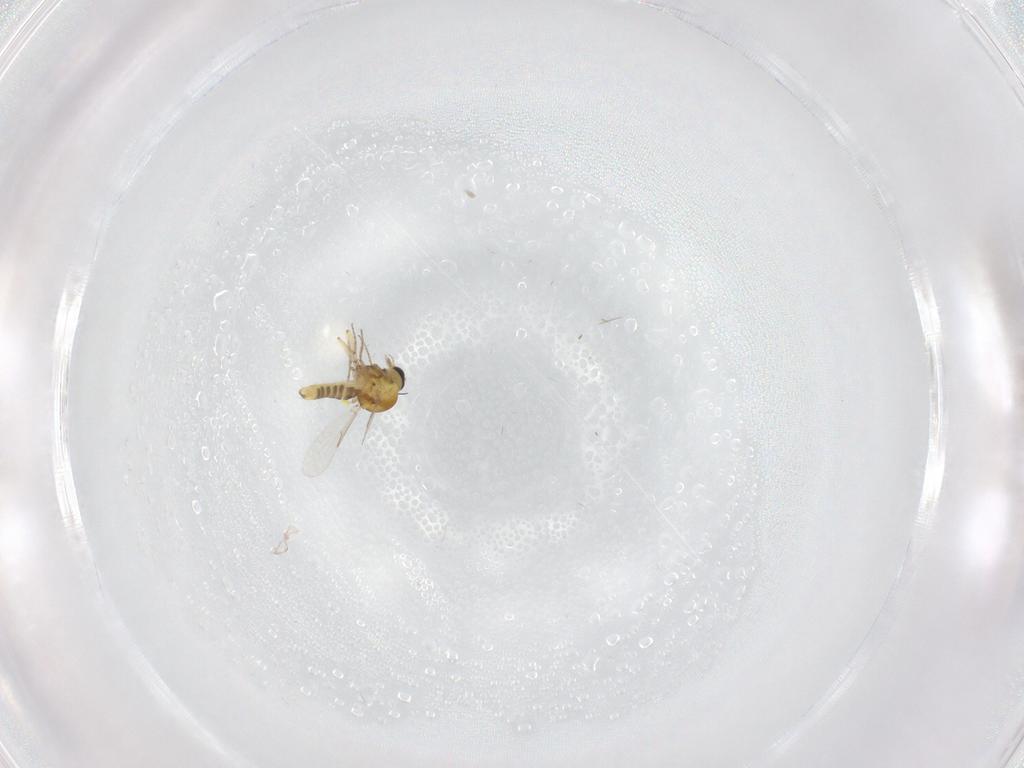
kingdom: Animalia
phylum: Arthropoda
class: Insecta
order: Diptera
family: Ceratopogonidae
